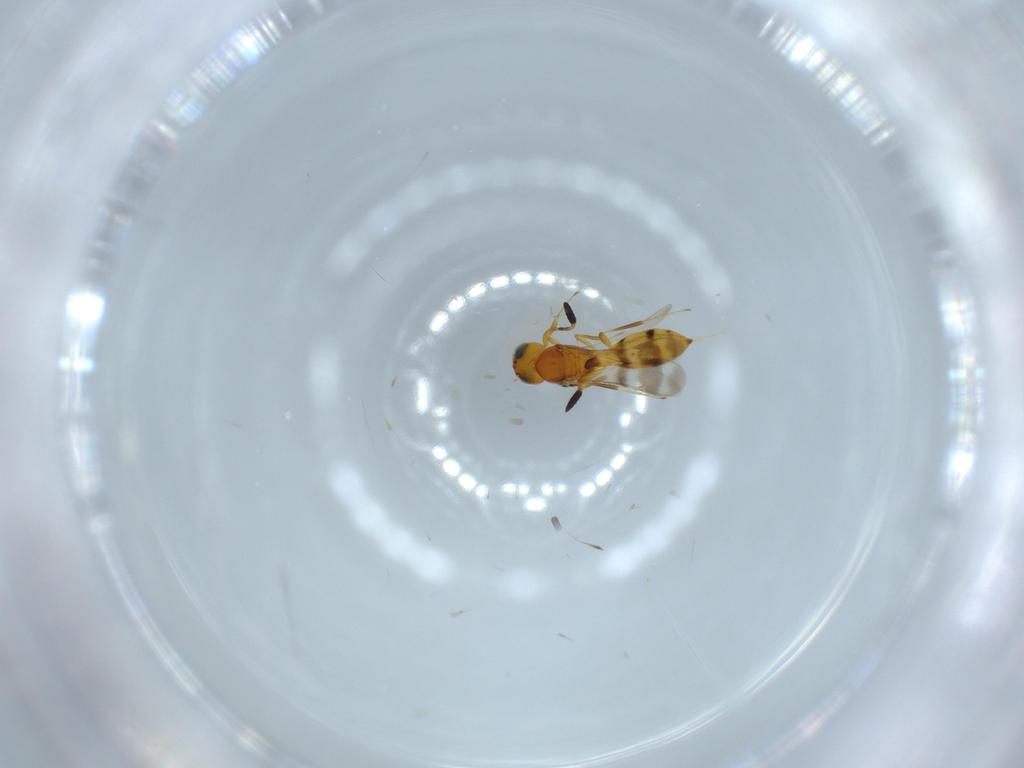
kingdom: Animalia
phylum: Arthropoda
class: Insecta
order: Hymenoptera
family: Scelionidae
